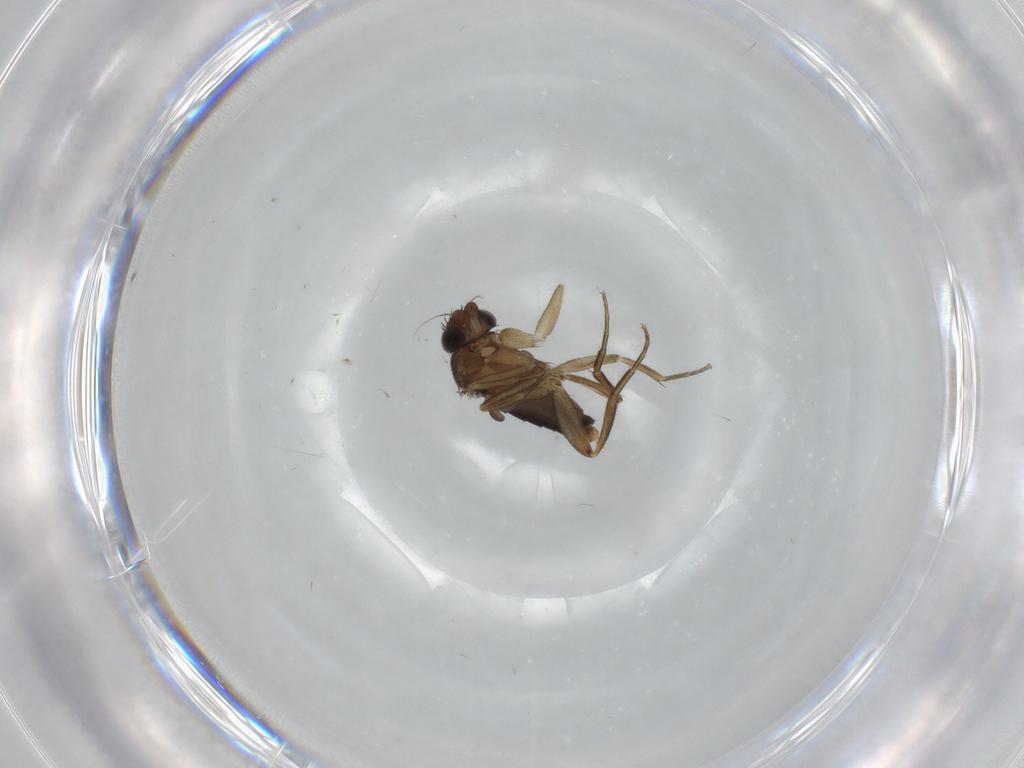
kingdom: Animalia
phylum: Arthropoda
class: Insecta
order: Diptera
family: Phoridae
